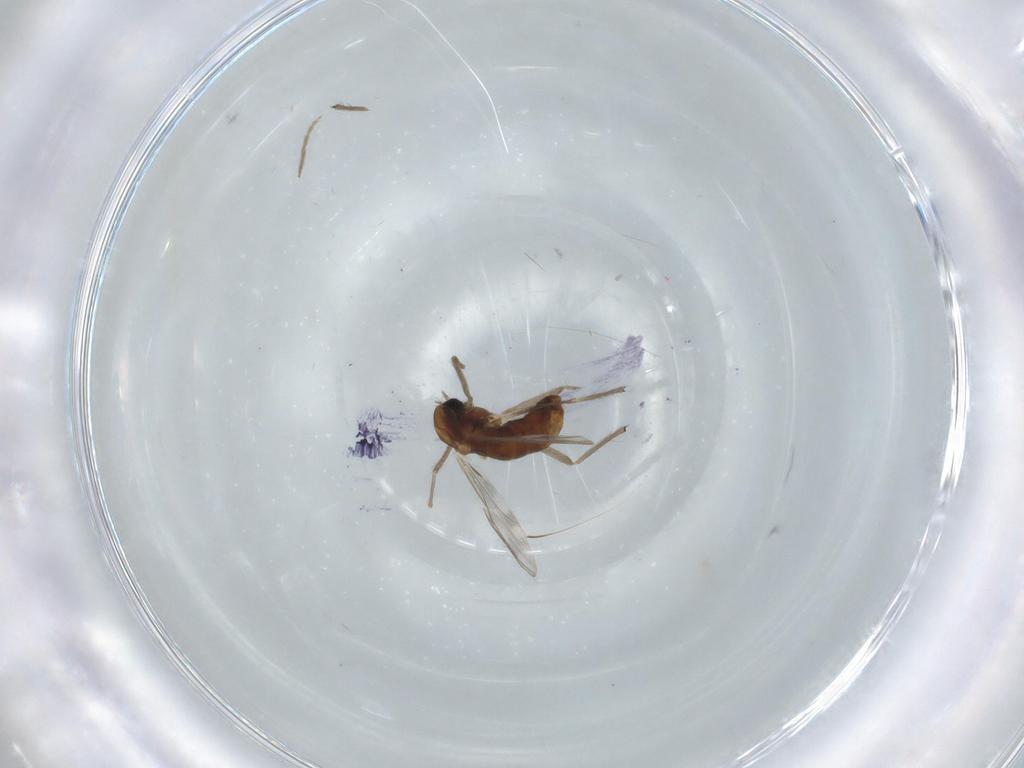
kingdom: Animalia
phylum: Arthropoda
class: Insecta
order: Diptera
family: Chironomidae
